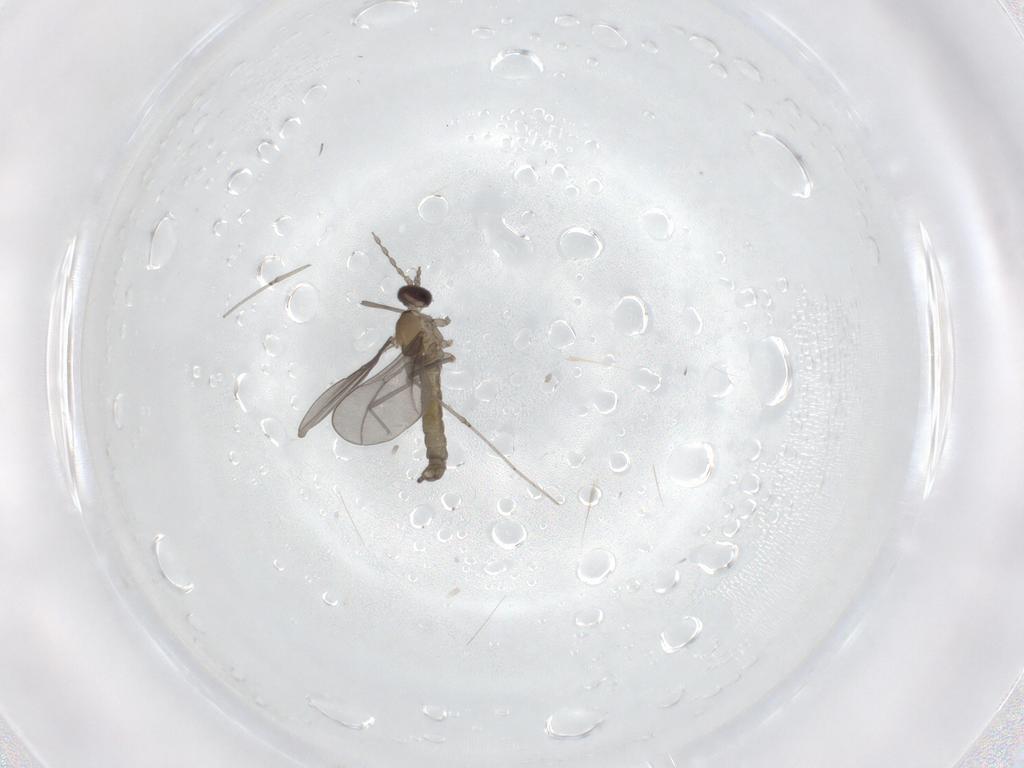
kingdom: Animalia
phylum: Arthropoda
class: Insecta
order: Diptera
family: Cecidomyiidae
